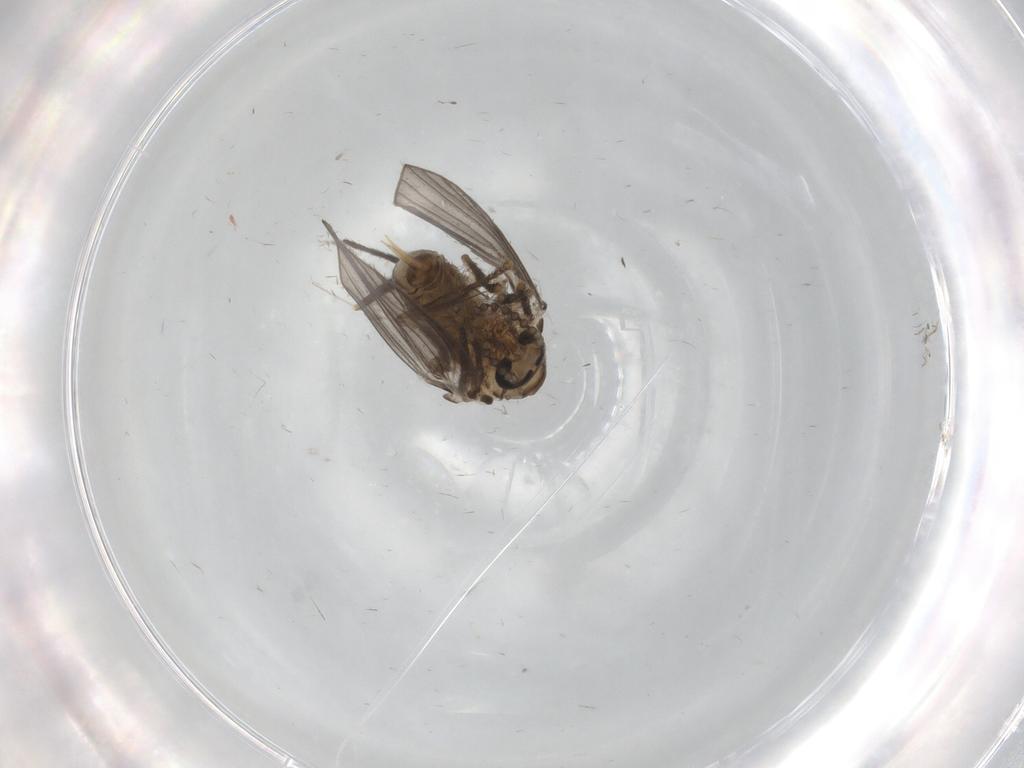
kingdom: Animalia
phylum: Arthropoda
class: Insecta
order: Diptera
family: Psychodidae
